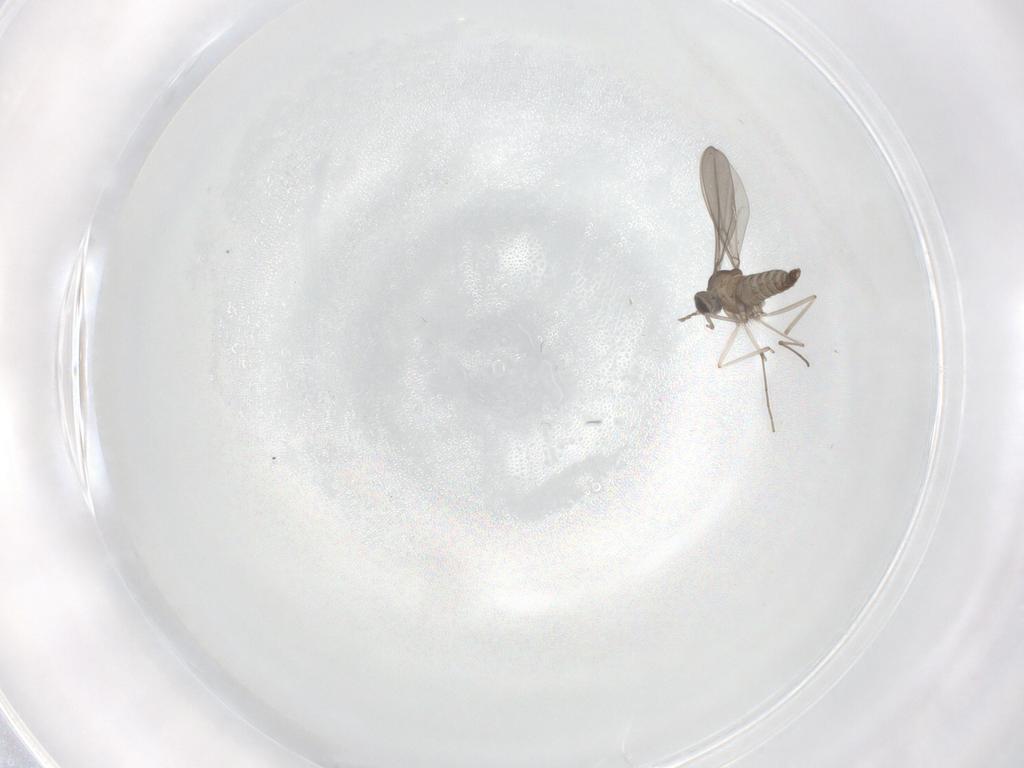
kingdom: Animalia
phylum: Arthropoda
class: Insecta
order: Diptera
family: Cecidomyiidae
